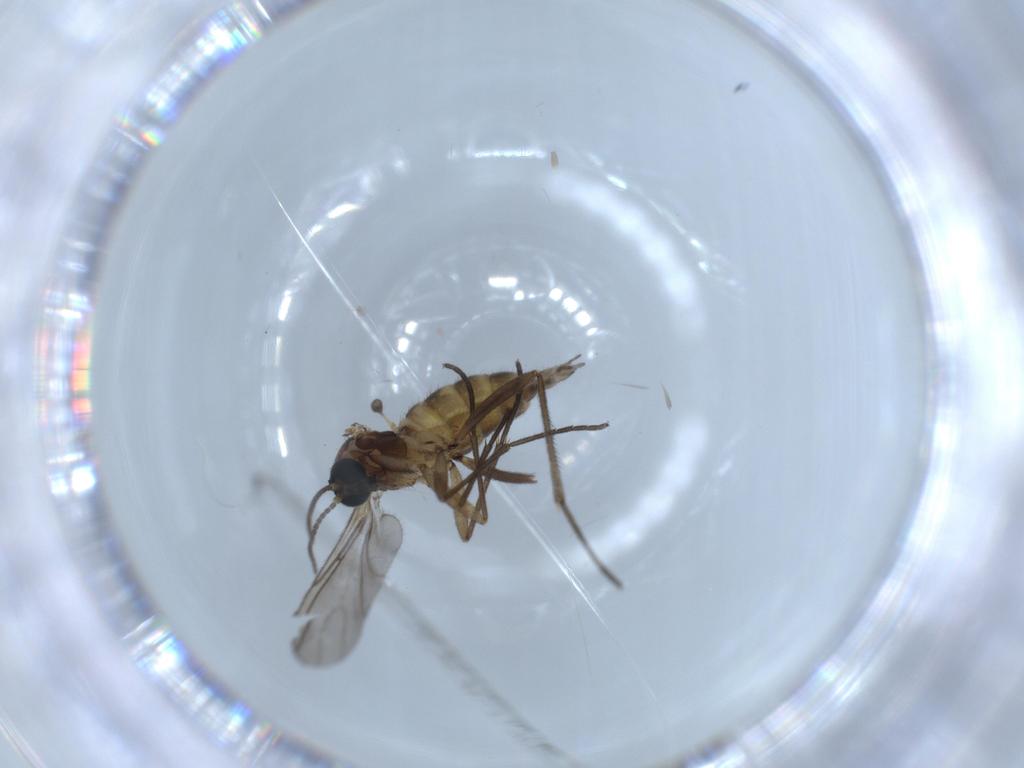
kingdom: Animalia
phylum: Arthropoda
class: Insecta
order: Diptera
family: Sciaridae
